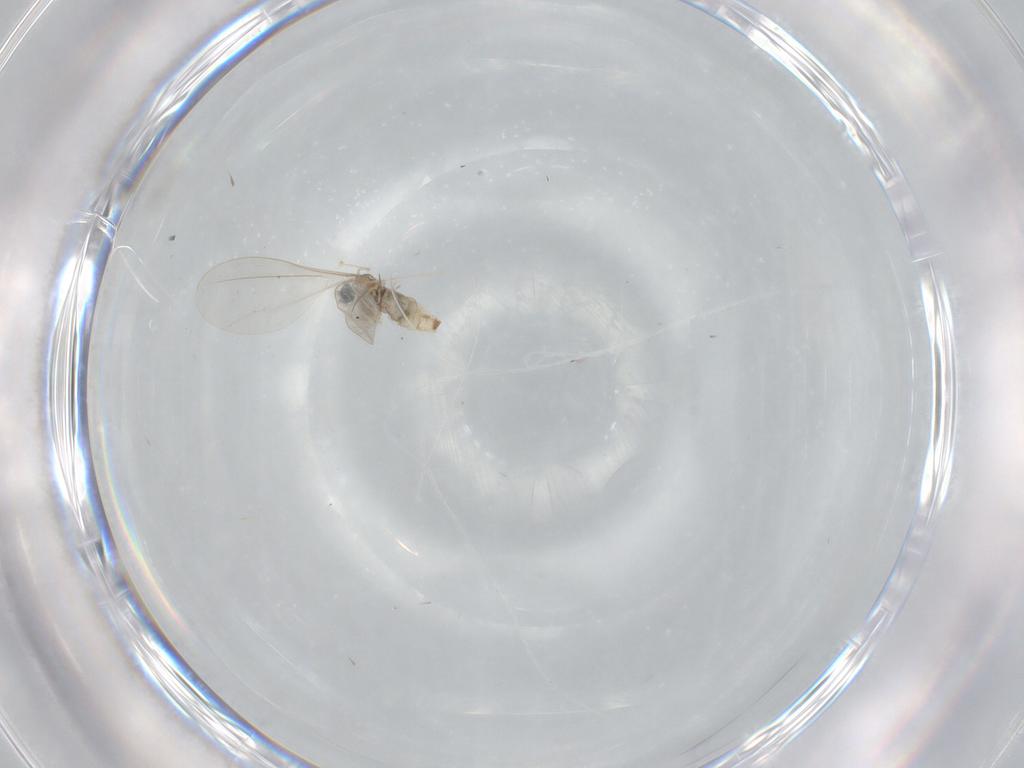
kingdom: Animalia
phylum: Arthropoda
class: Insecta
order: Diptera
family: Cecidomyiidae
